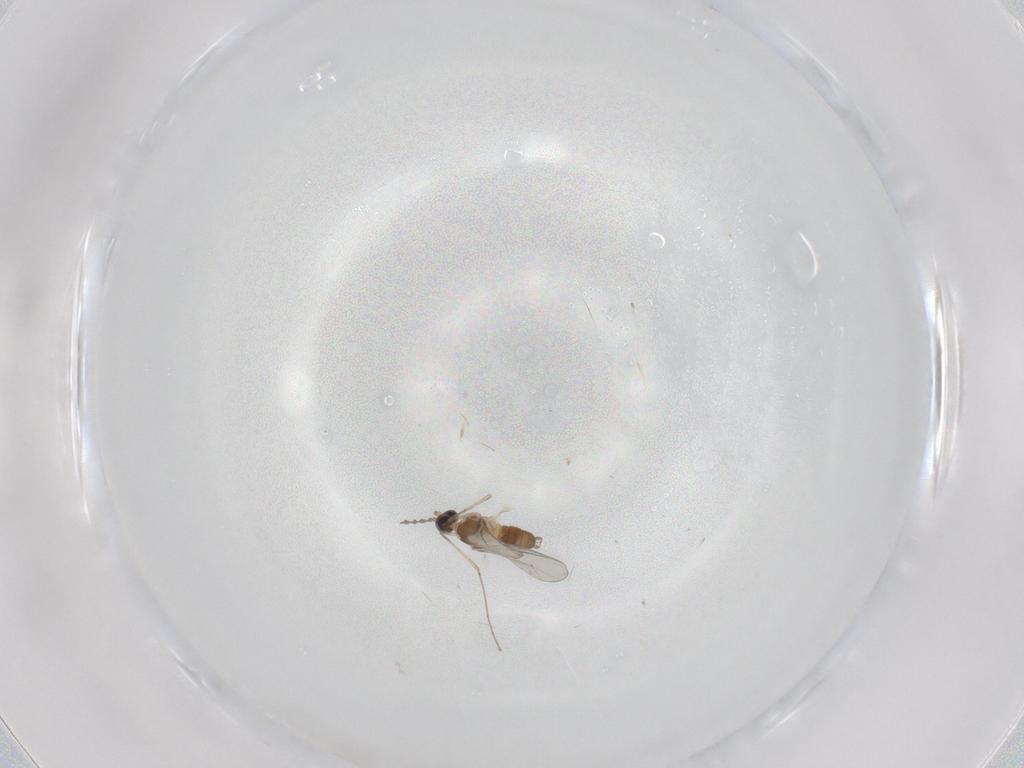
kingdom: Animalia
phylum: Arthropoda
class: Insecta
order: Diptera
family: Cecidomyiidae
